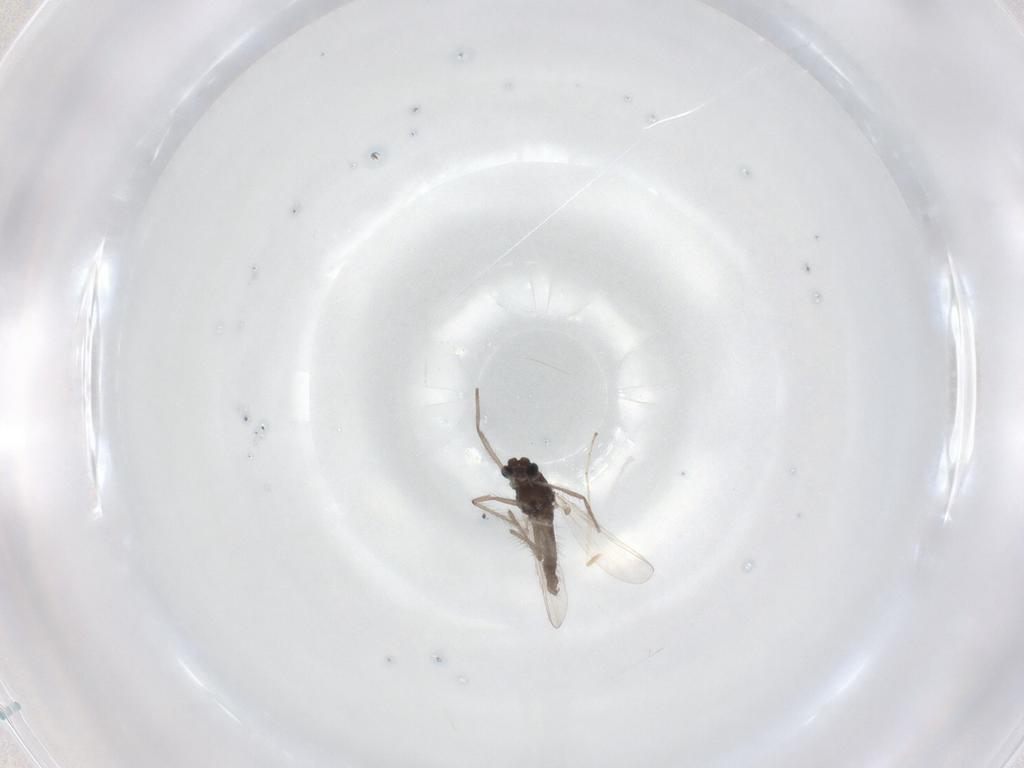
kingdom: Animalia
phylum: Arthropoda
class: Insecta
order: Diptera
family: Chironomidae
